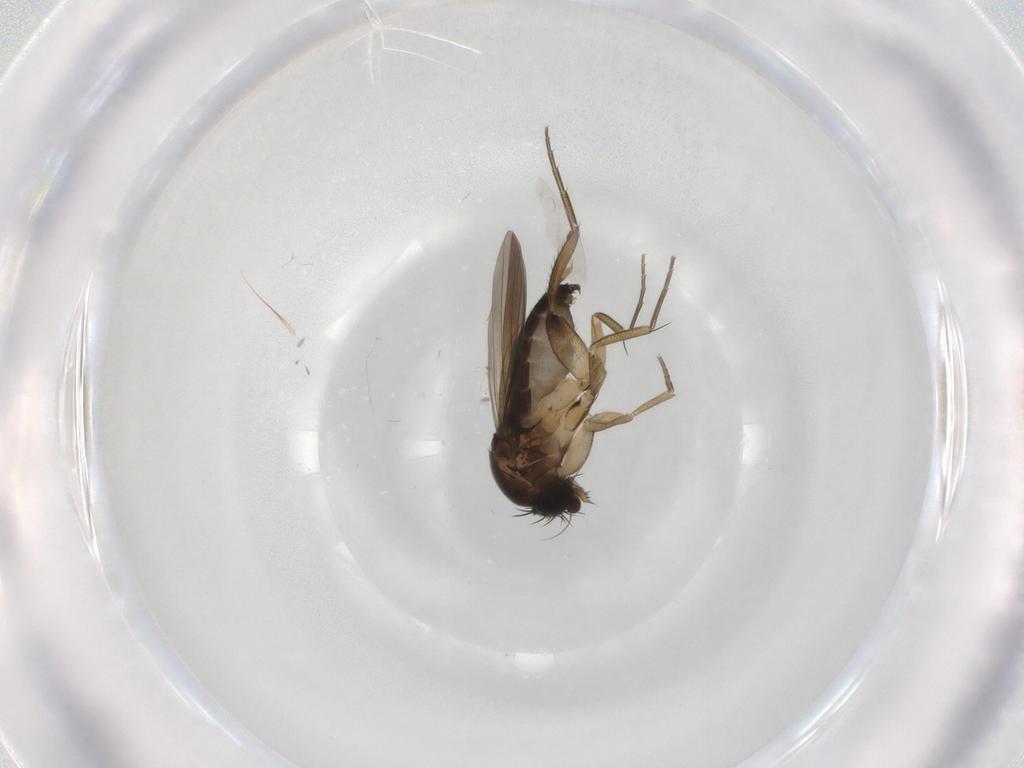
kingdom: Animalia
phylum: Arthropoda
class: Insecta
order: Diptera
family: Phoridae
